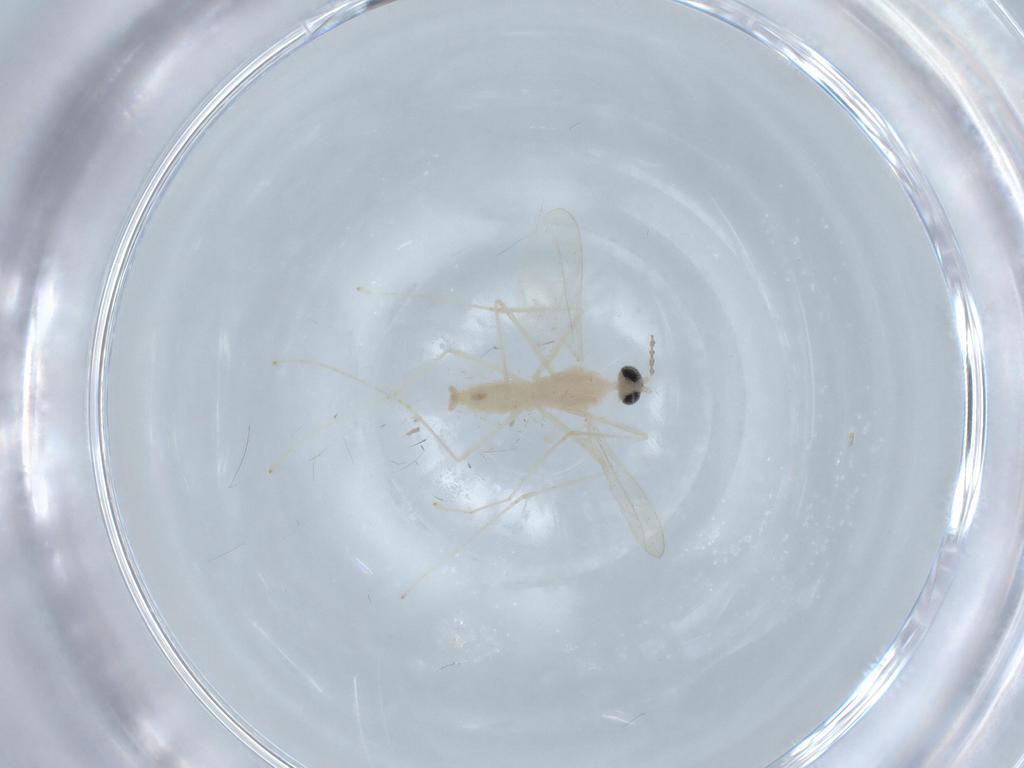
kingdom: Animalia
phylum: Arthropoda
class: Insecta
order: Diptera
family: Cecidomyiidae
